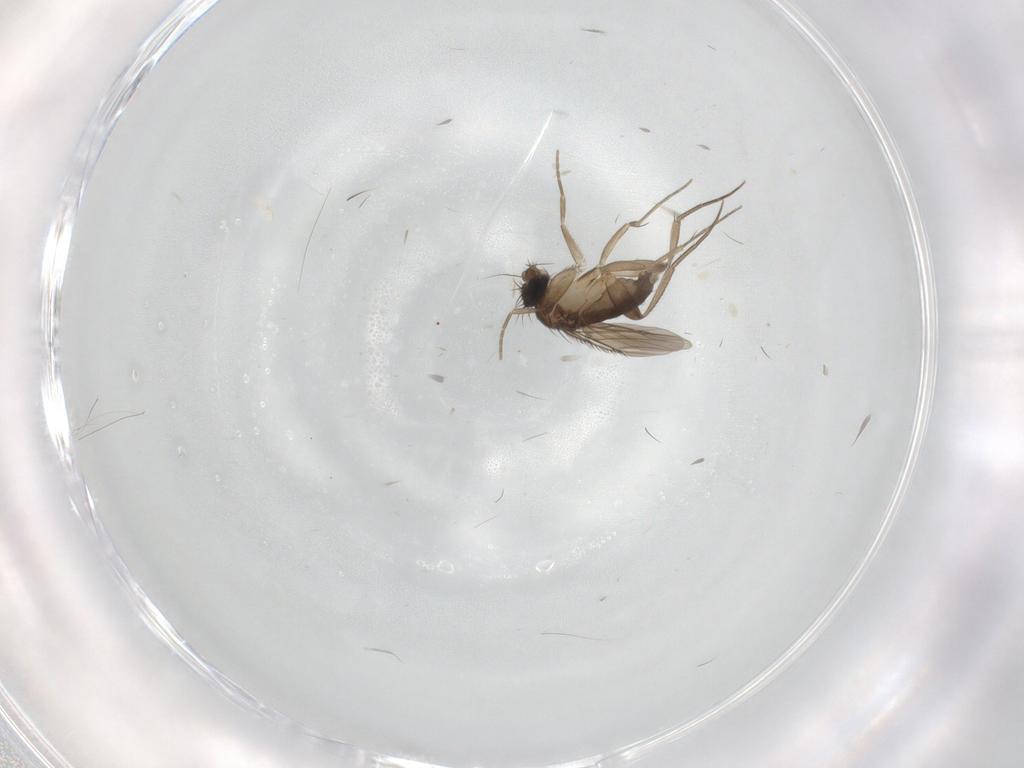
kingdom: Animalia
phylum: Arthropoda
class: Insecta
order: Diptera
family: Phoridae
